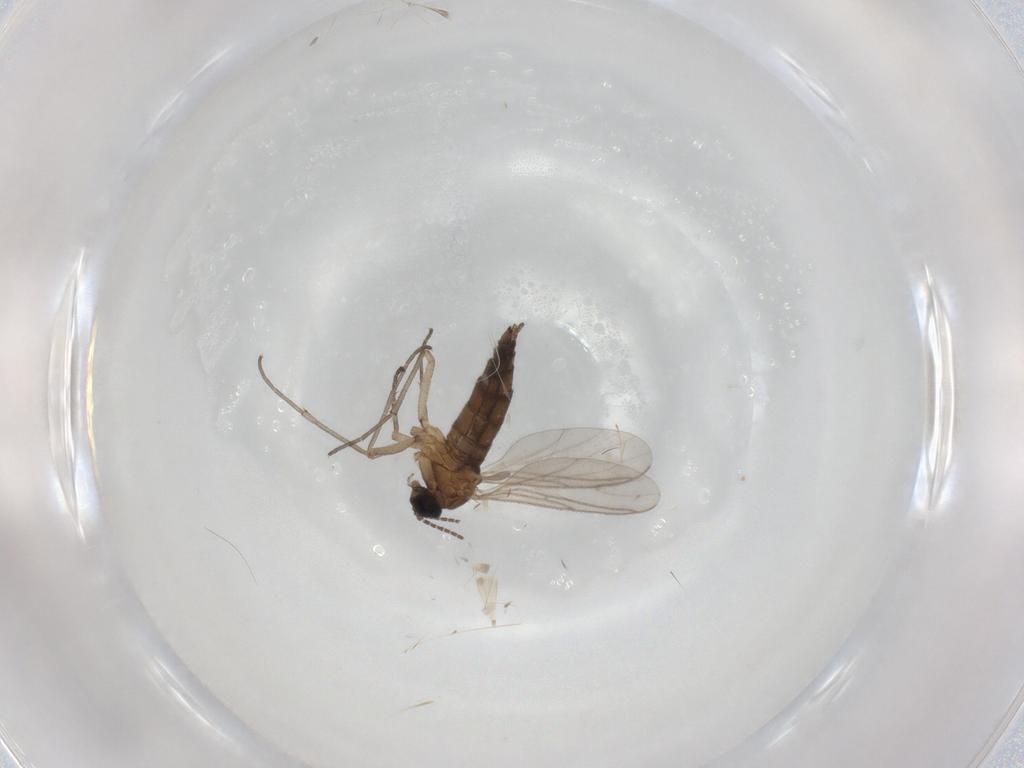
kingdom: Animalia
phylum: Arthropoda
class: Insecta
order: Diptera
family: Sciaridae
